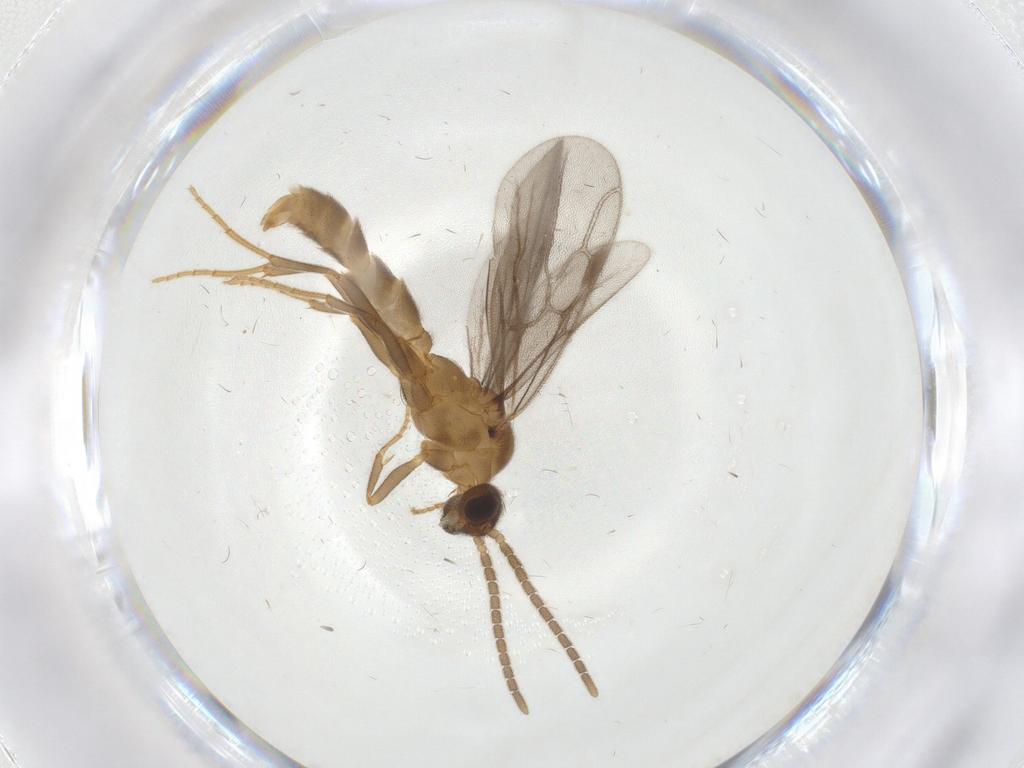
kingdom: Animalia
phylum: Arthropoda
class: Insecta
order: Hymenoptera
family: Formicidae
